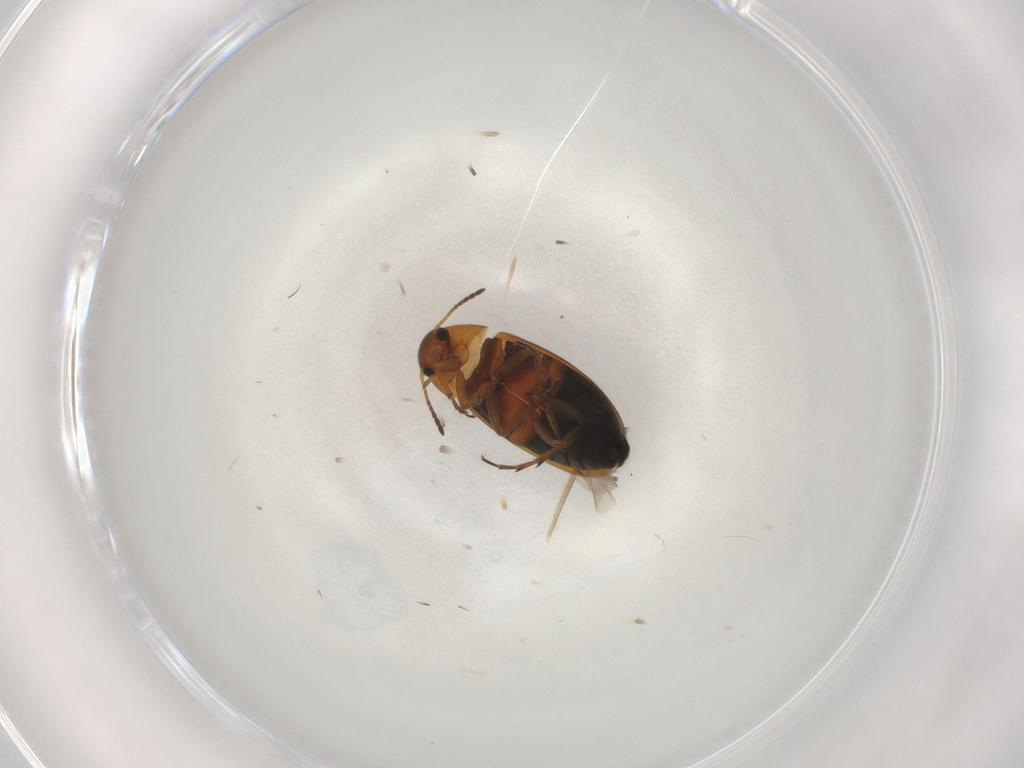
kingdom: Animalia
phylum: Arthropoda
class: Insecta
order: Coleoptera
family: Scraptiidae
